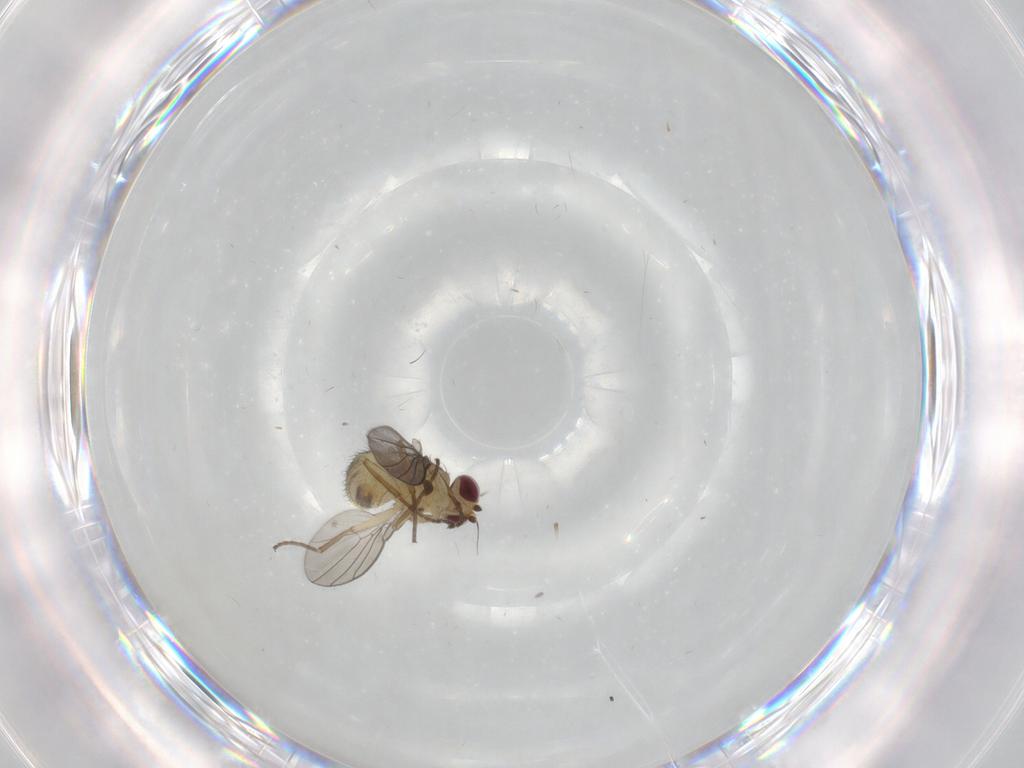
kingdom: Animalia
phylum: Arthropoda
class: Insecta
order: Diptera
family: Agromyzidae
